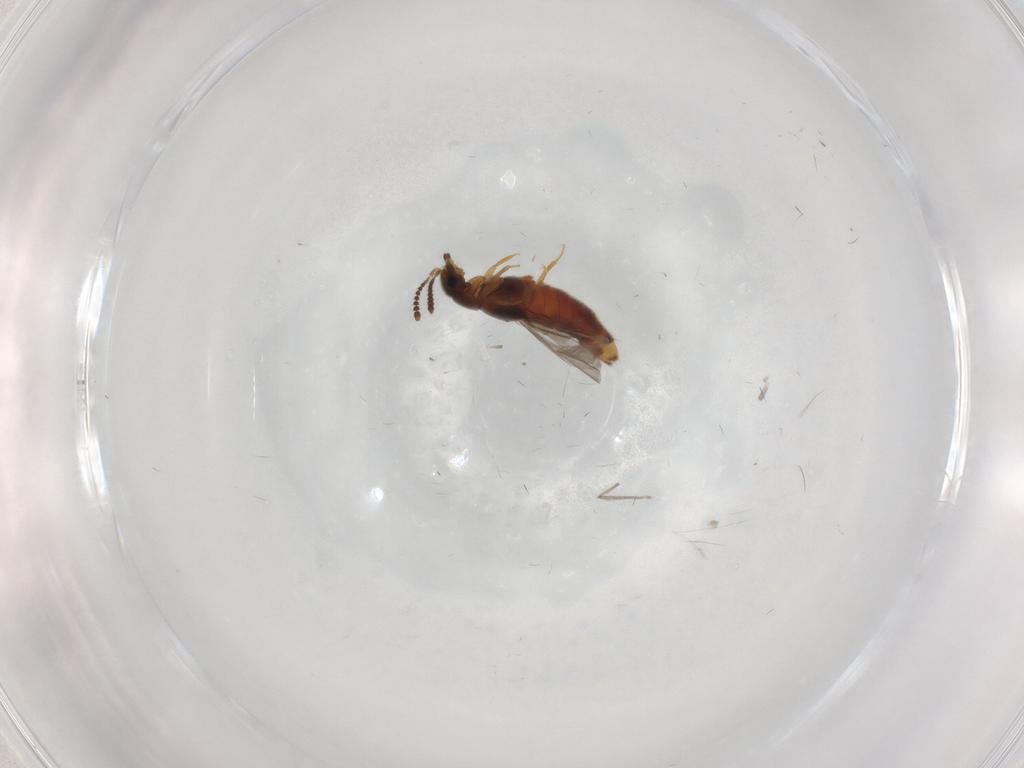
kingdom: Animalia
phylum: Arthropoda
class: Insecta
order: Coleoptera
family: Staphylinidae
